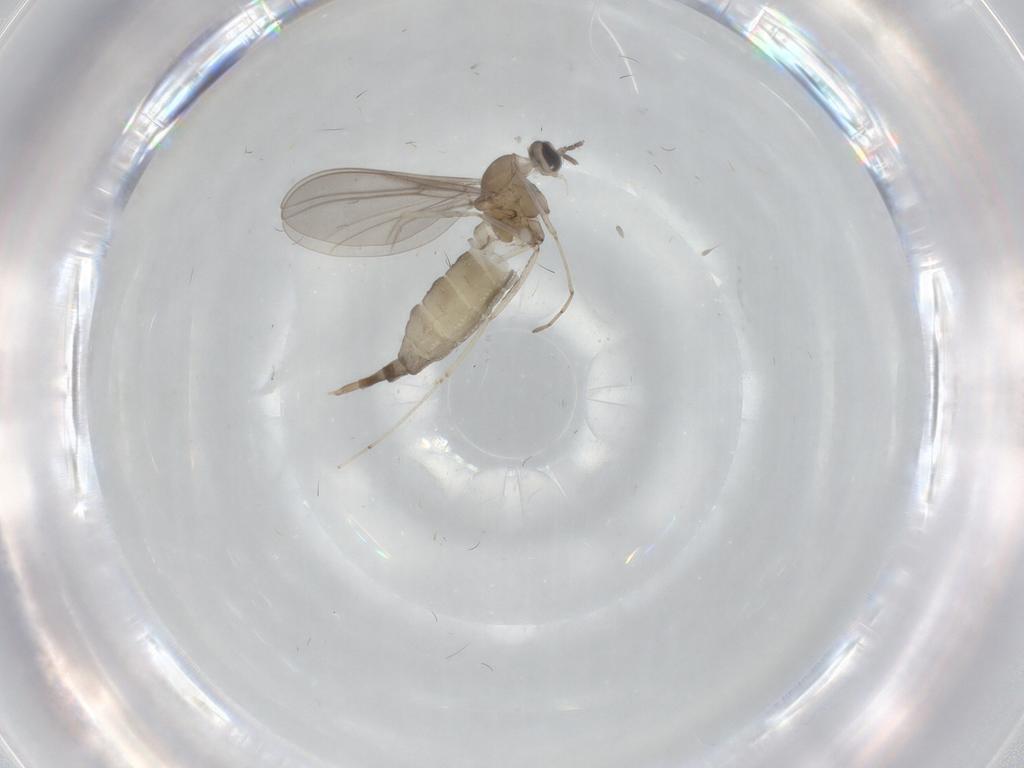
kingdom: Animalia
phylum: Arthropoda
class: Insecta
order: Diptera
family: Cecidomyiidae
